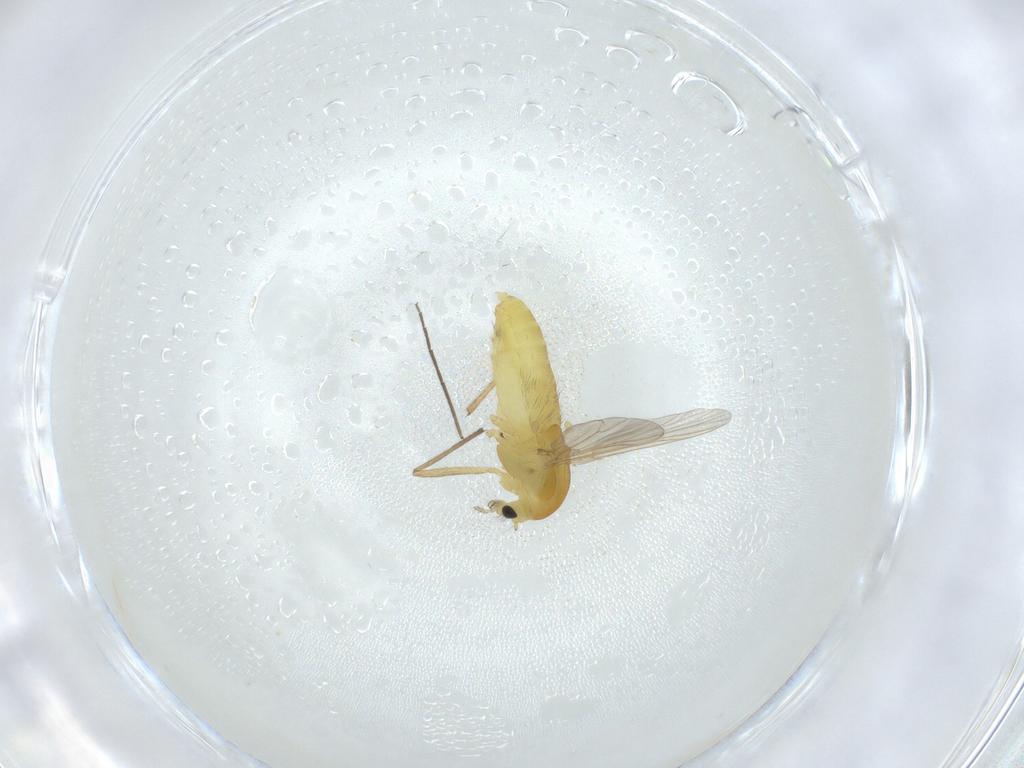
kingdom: Animalia
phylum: Arthropoda
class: Insecta
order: Diptera
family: Chironomidae
